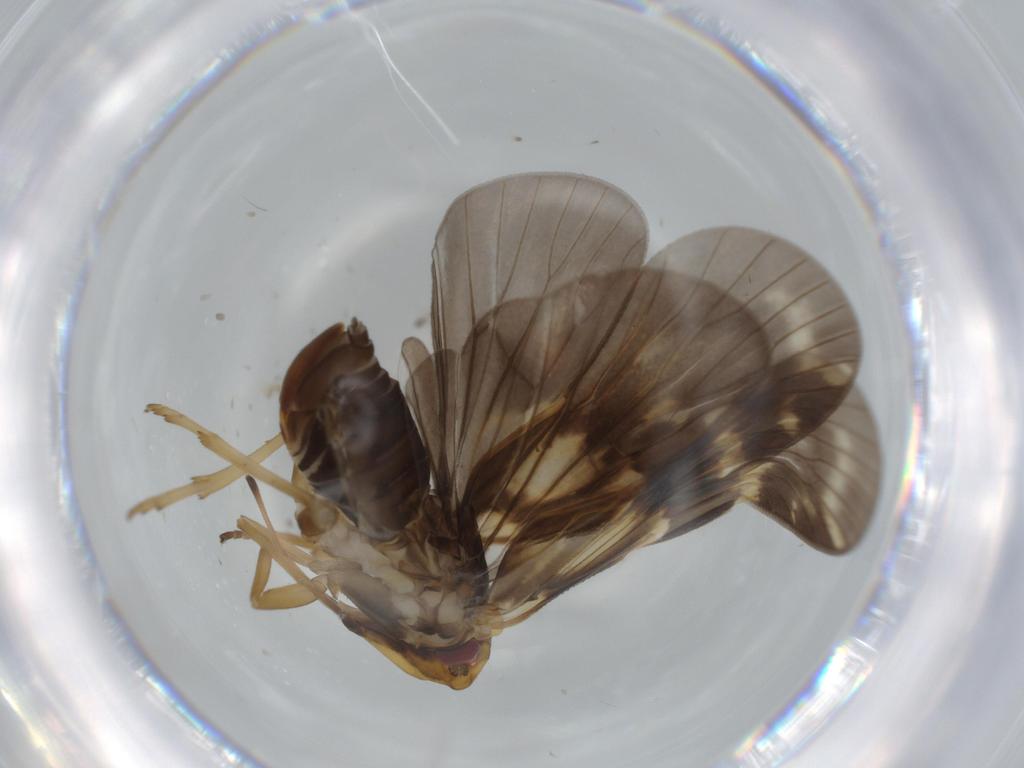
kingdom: Animalia
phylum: Arthropoda
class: Insecta
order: Hemiptera
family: Cixiidae
